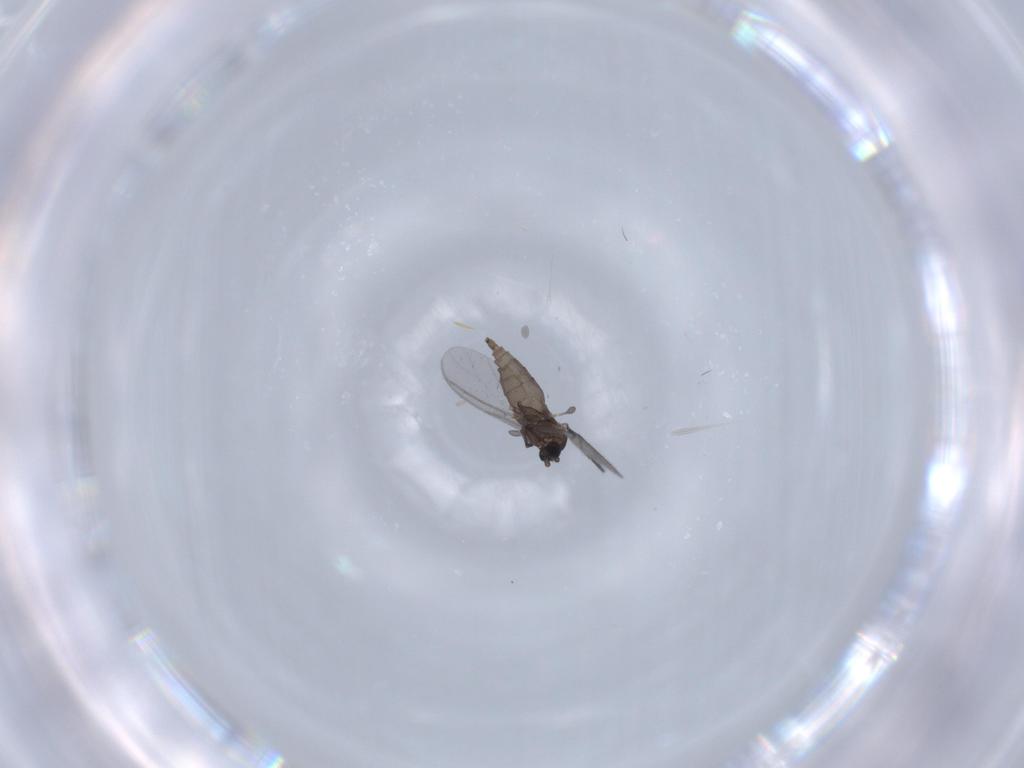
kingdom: Animalia
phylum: Arthropoda
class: Insecta
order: Diptera
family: Sciaridae
